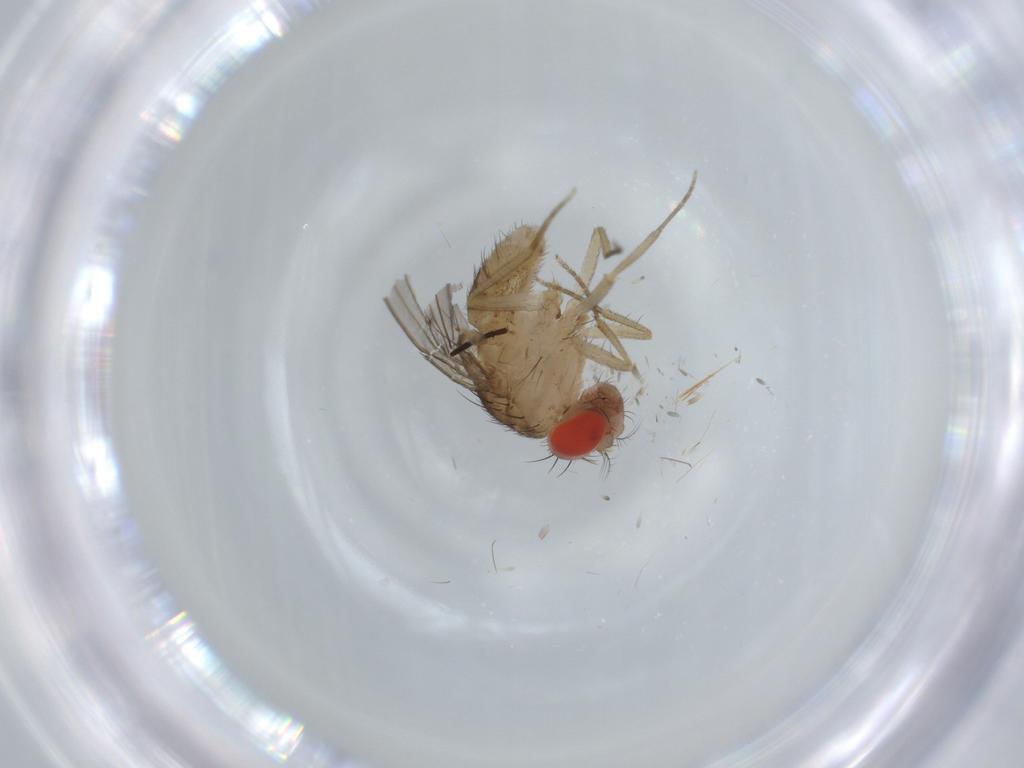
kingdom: Animalia
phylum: Arthropoda
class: Insecta
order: Diptera
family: Drosophilidae
